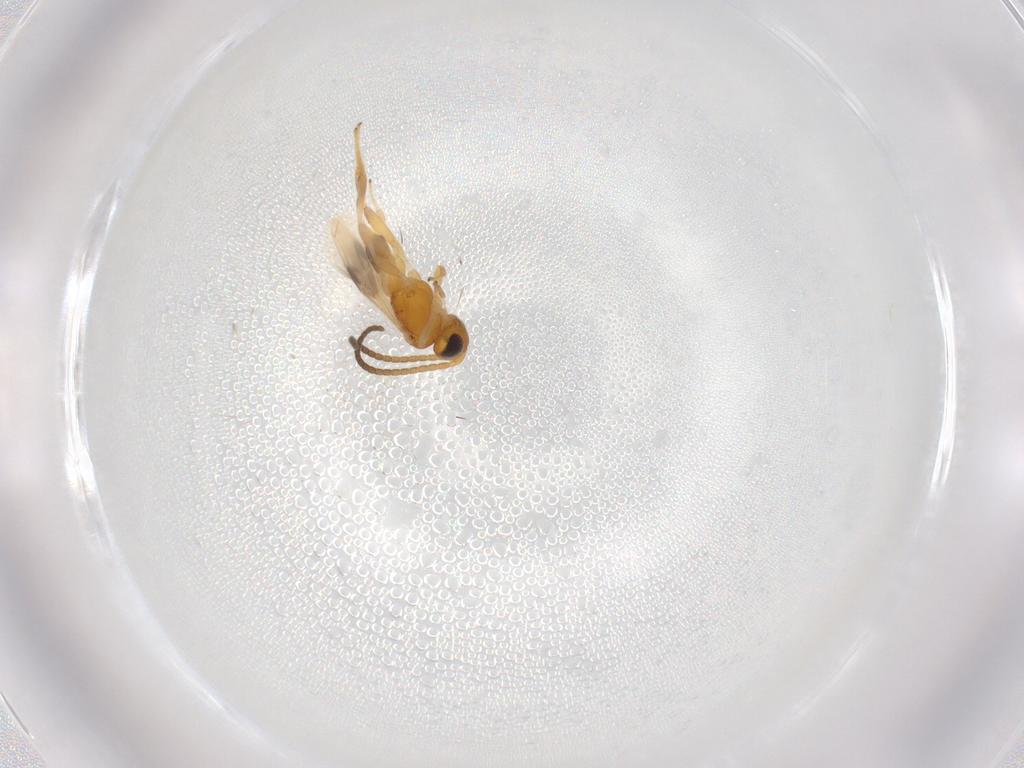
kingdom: Animalia
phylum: Arthropoda
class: Insecta
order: Hymenoptera
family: Braconidae
